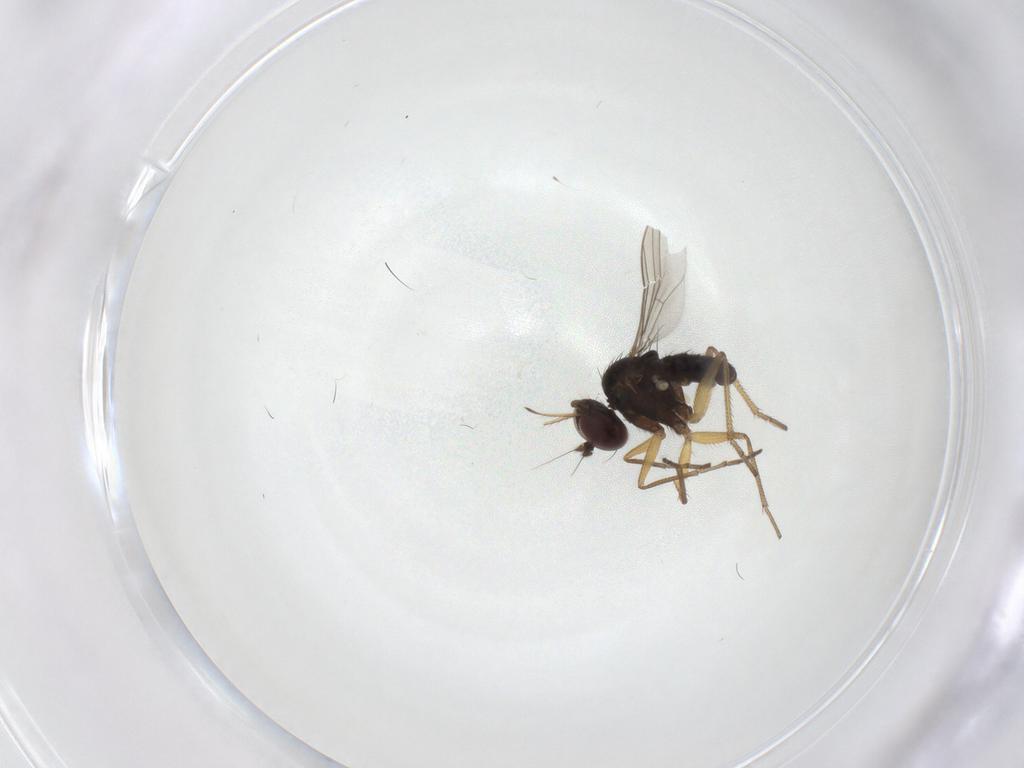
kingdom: Animalia
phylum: Arthropoda
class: Insecta
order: Diptera
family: Dolichopodidae
